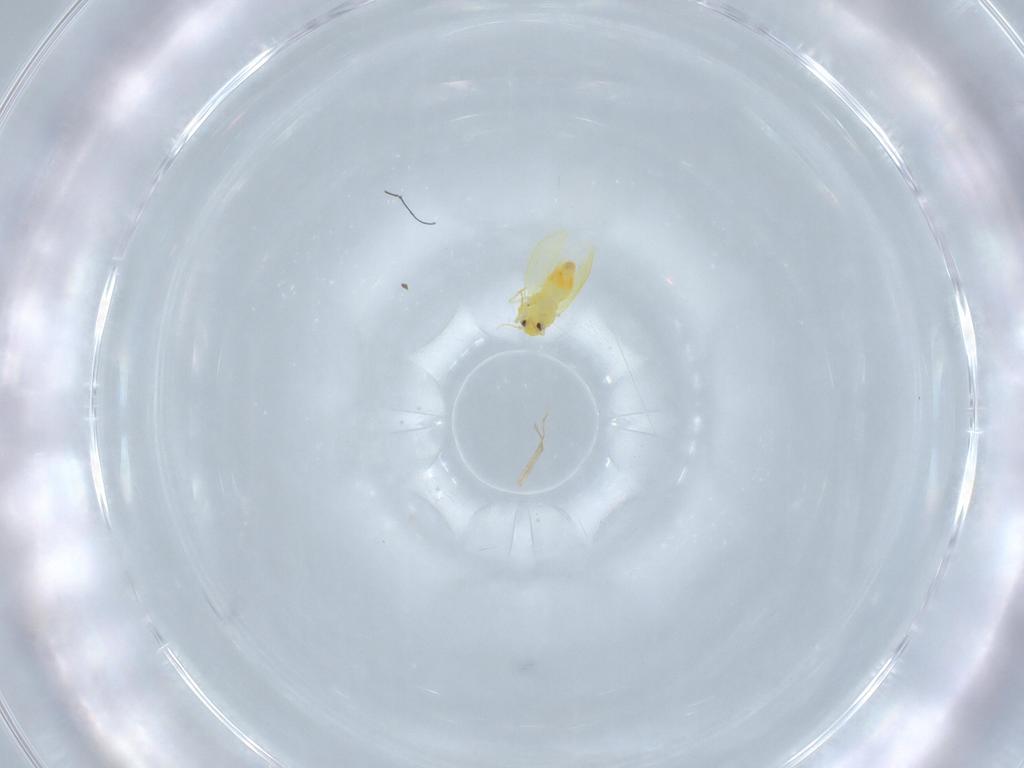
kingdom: Animalia
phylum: Arthropoda
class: Insecta
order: Hemiptera
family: Aleyrodidae
